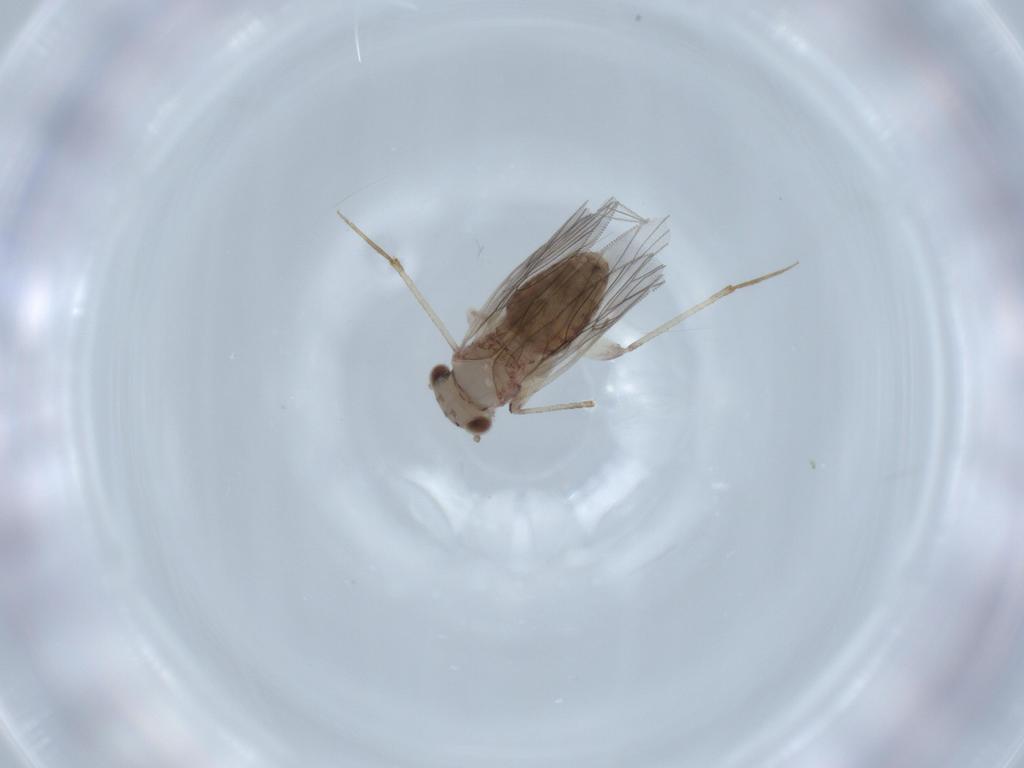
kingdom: Animalia
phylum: Arthropoda
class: Insecta
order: Psocodea
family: Lepidopsocidae
